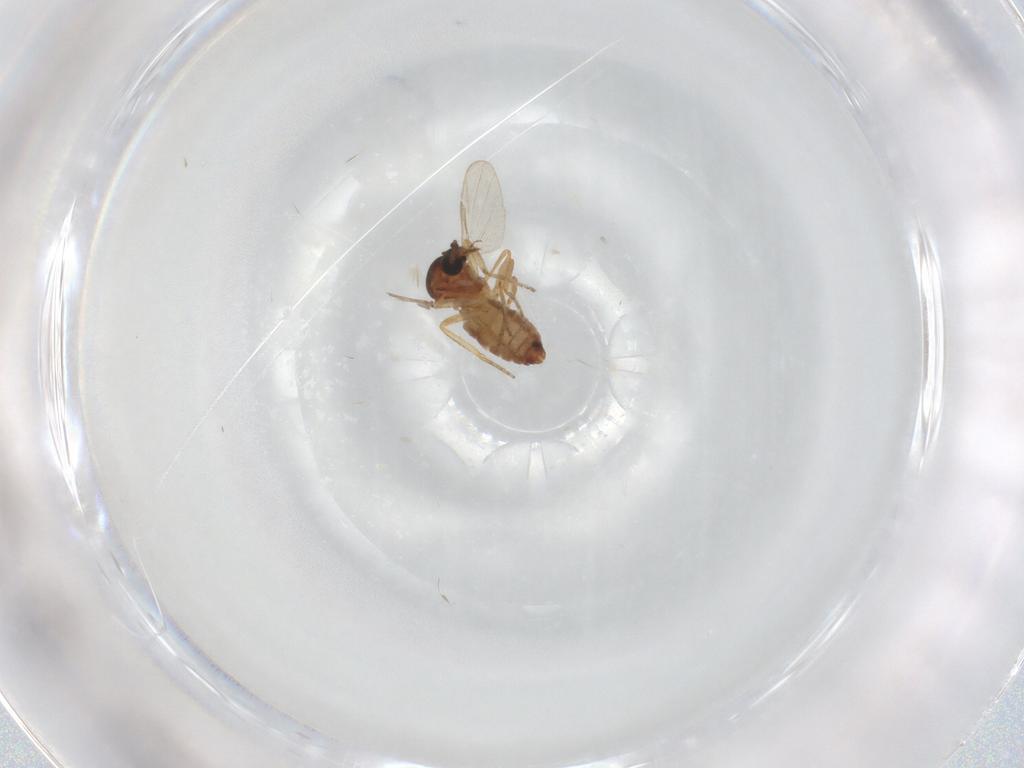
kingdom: Animalia
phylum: Arthropoda
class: Insecta
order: Diptera
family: Ceratopogonidae
